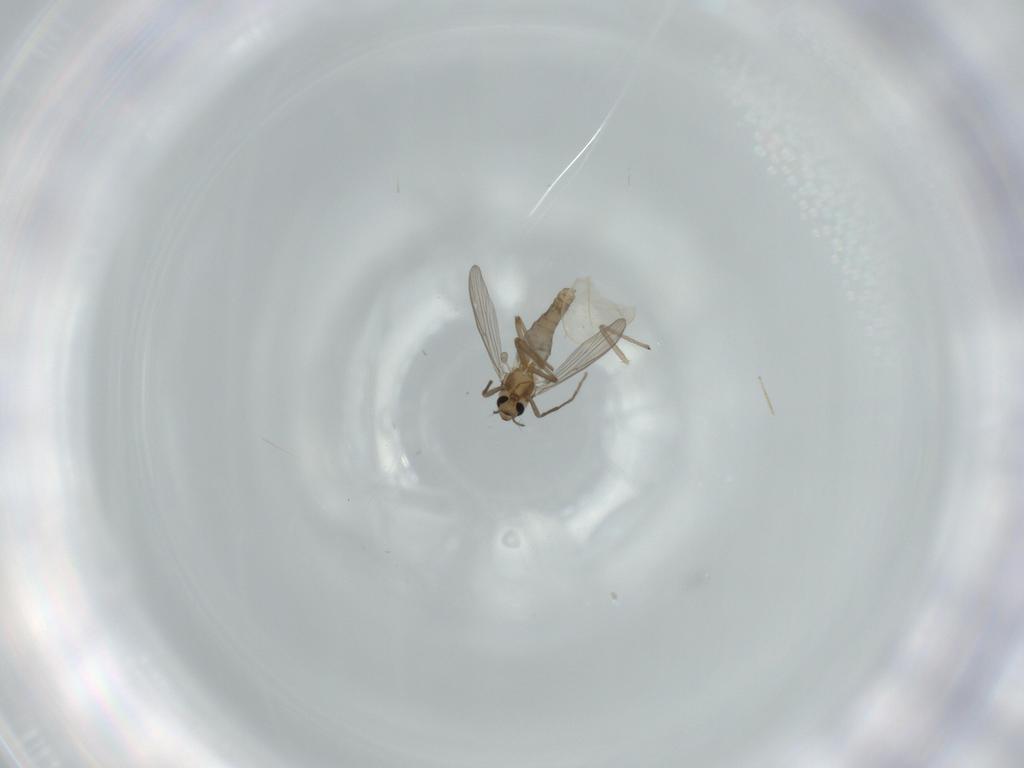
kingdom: Animalia
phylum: Arthropoda
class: Insecta
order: Diptera
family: Chironomidae
